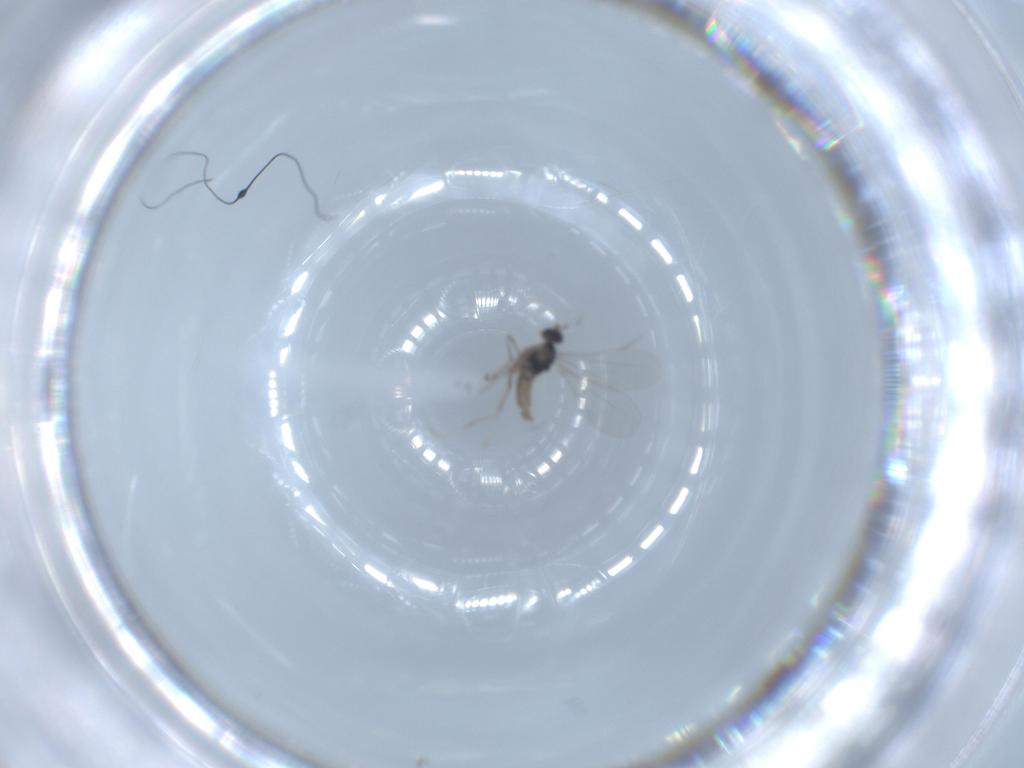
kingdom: Animalia
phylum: Arthropoda
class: Insecta
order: Diptera
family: Cecidomyiidae
